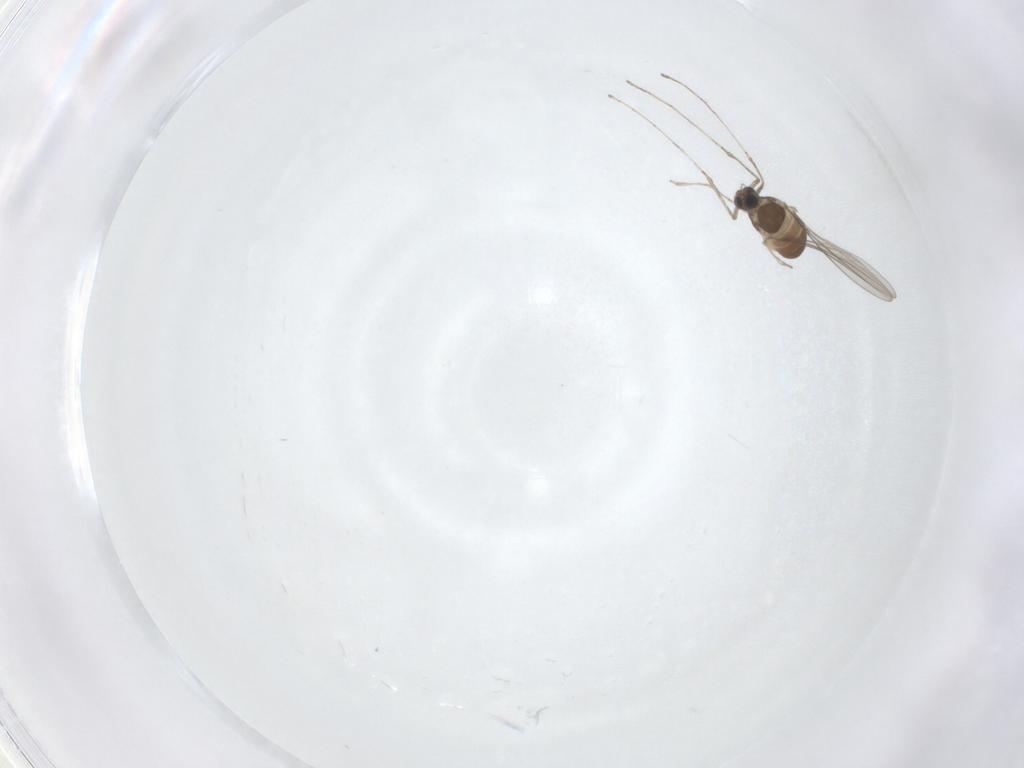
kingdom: Animalia
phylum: Arthropoda
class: Insecta
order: Diptera
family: Cecidomyiidae
